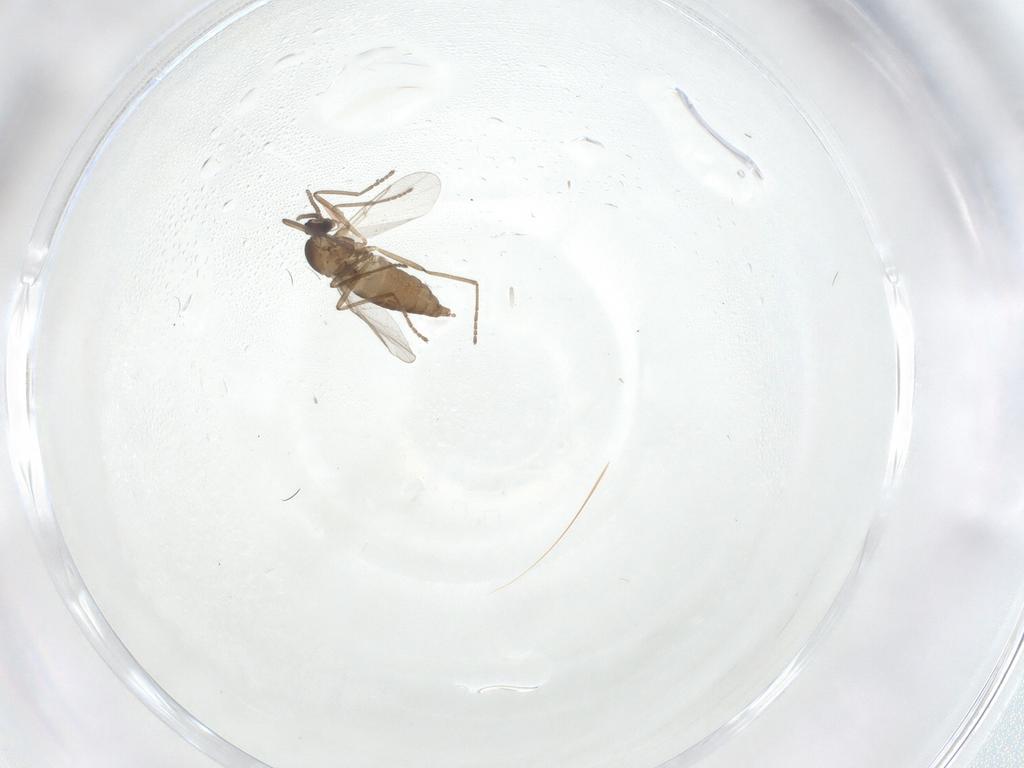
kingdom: Animalia
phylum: Arthropoda
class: Insecta
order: Diptera
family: Cecidomyiidae
